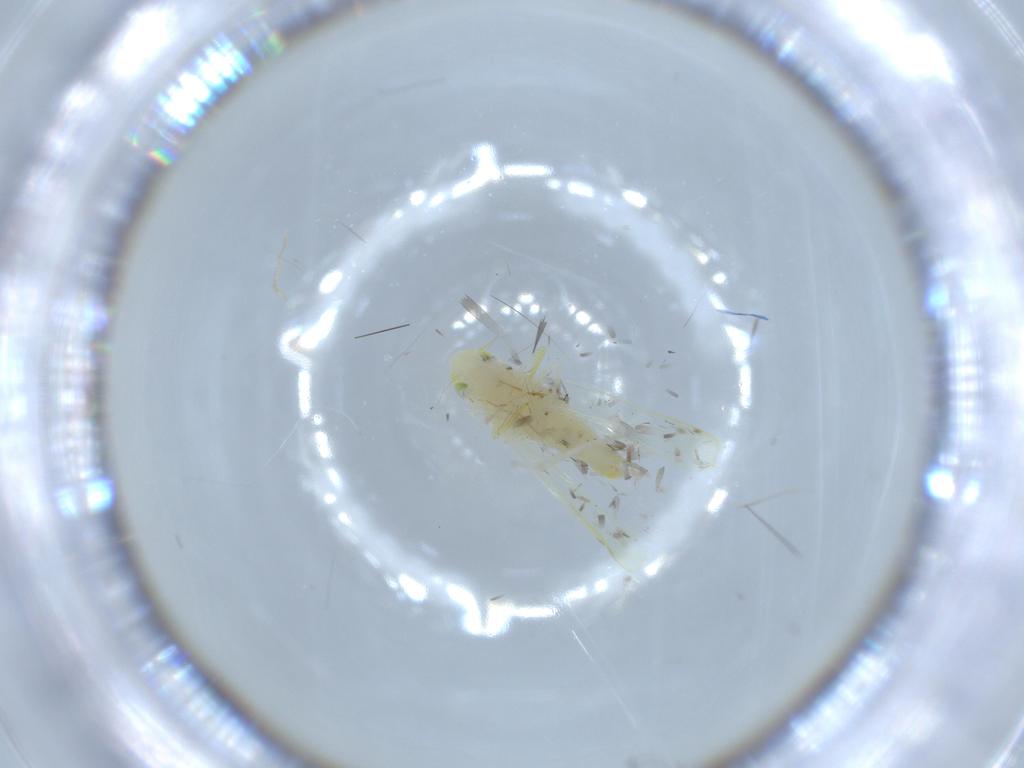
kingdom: Animalia
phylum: Arthropoda
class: Insecta
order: Hemiptera
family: Cicadellidae
